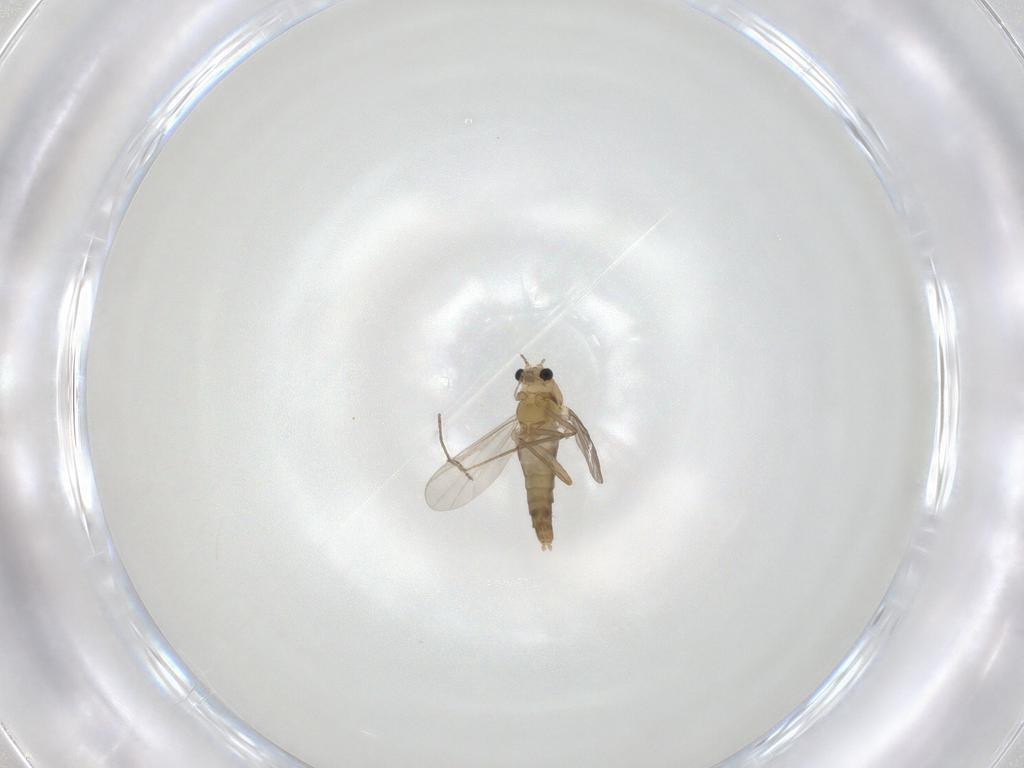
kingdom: Animalia
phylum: Arthropoda
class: Insecta
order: Diptera
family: Chironomidae
